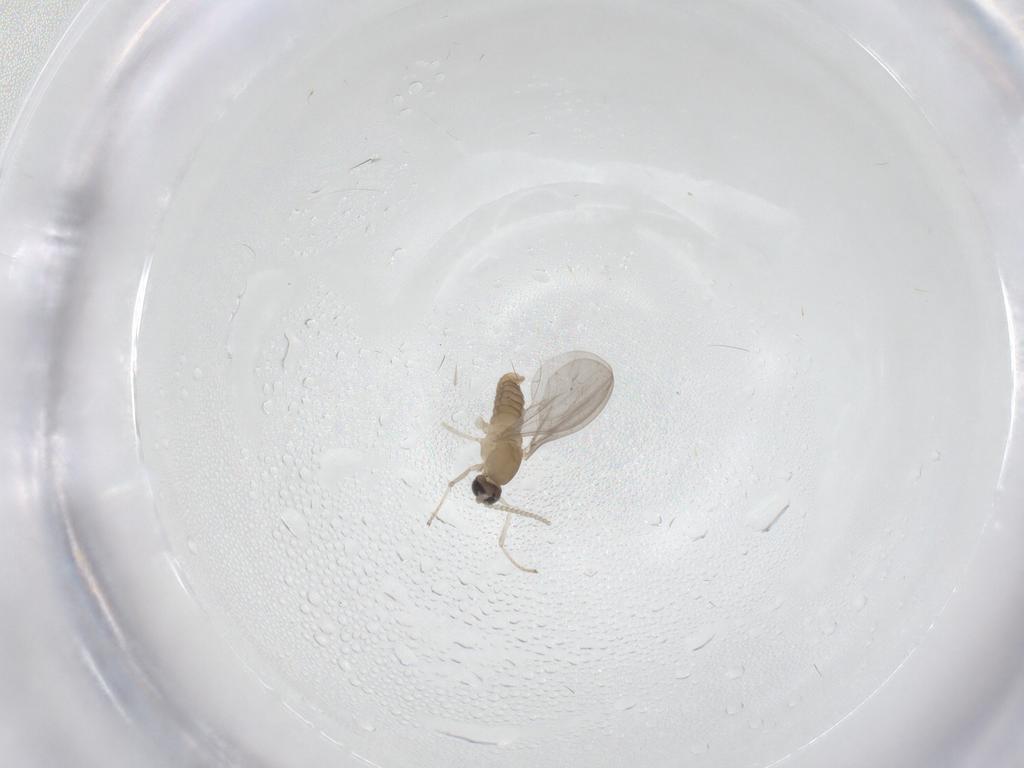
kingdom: Animalia
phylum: Arthropoda
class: Insecta
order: Diptera
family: Cecidomyiidae
